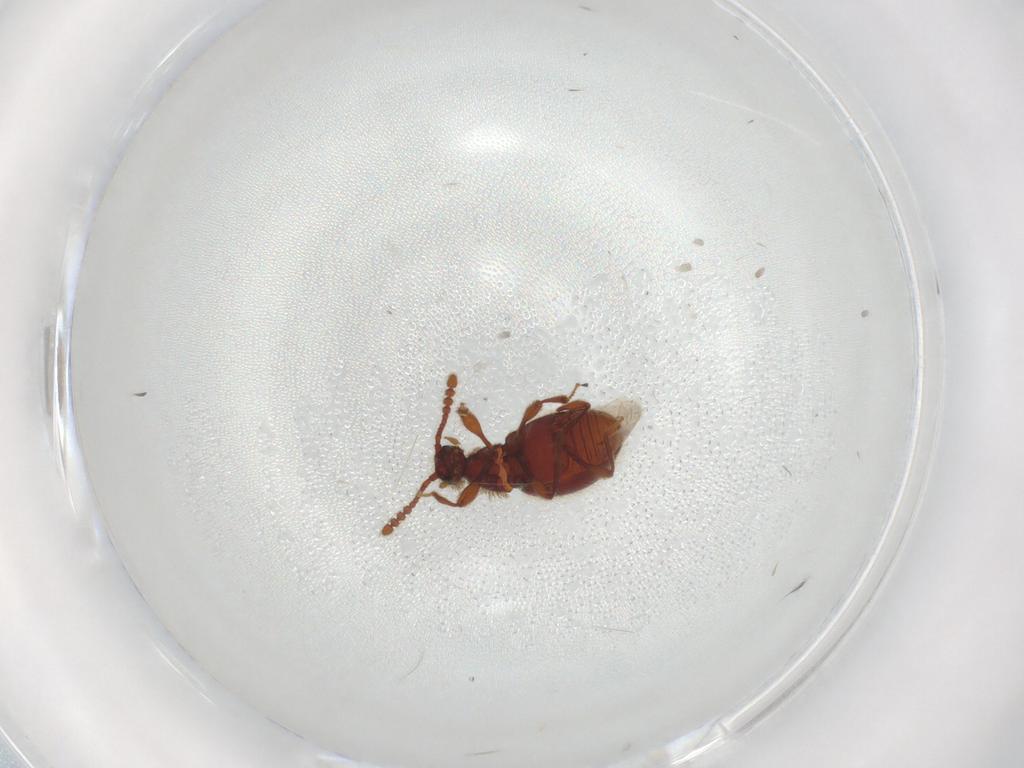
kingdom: Animalia
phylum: Arthropoda
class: Insecta
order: Coleoptera
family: Staphylinidae
